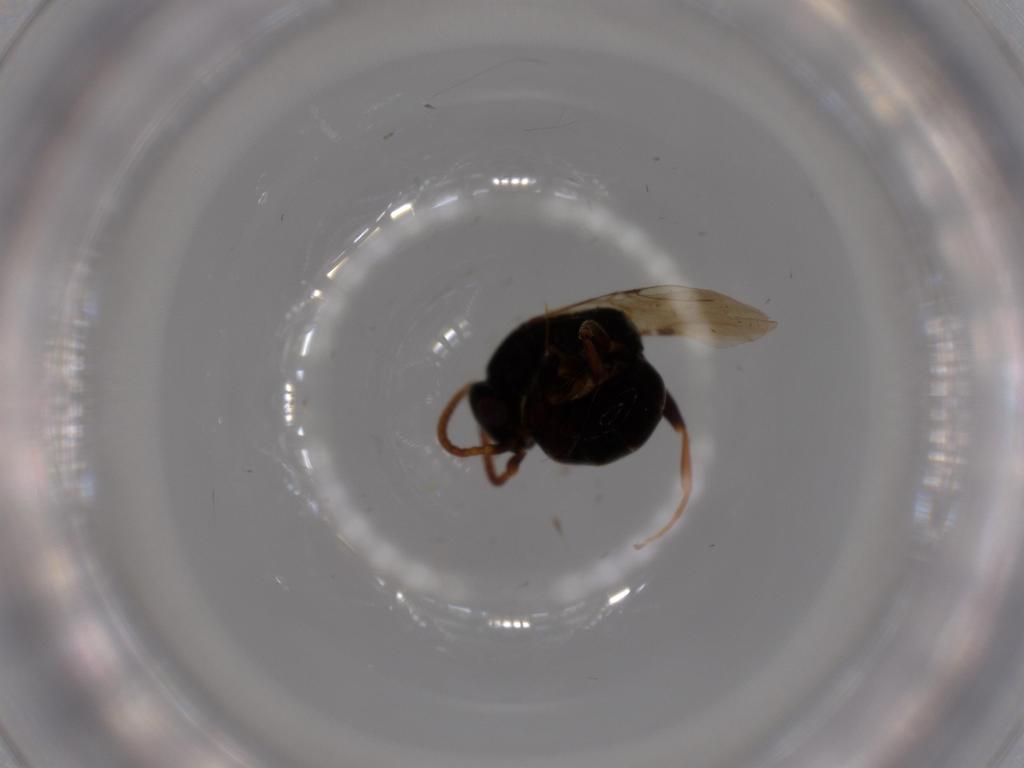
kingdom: Animalia
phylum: Arthropoda
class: Insecta
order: Hymenoptera
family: Bethylidae
